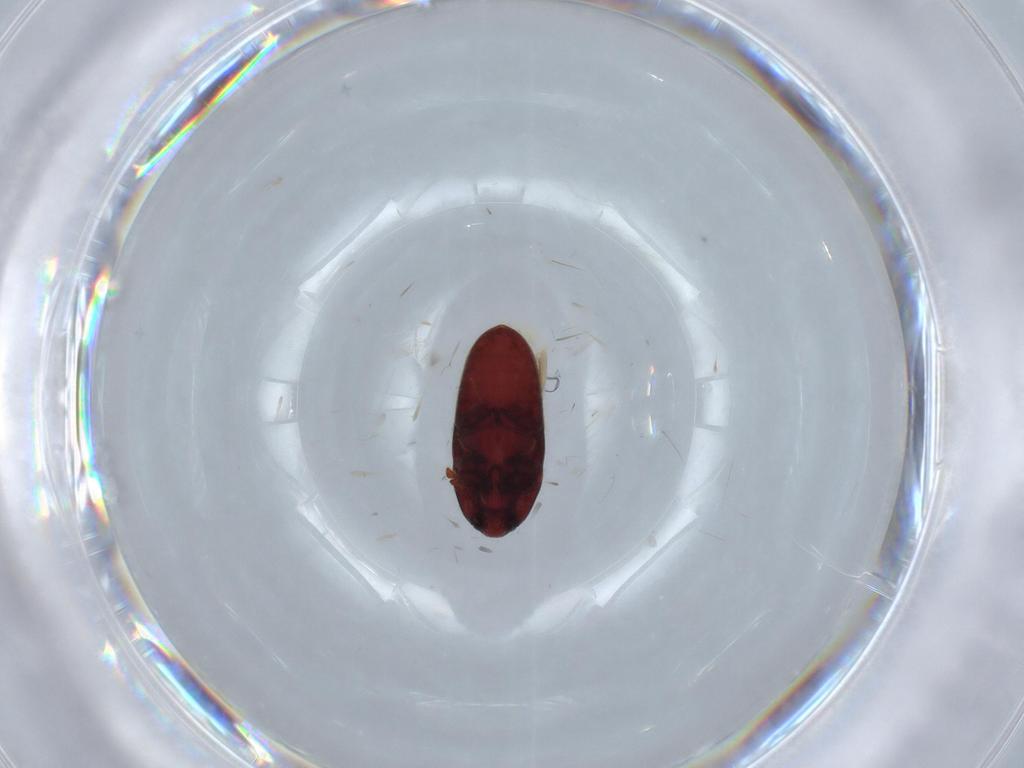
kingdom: Animalia
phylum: Arthropoda
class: Insecta
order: Coleoptera
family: Throscidae
